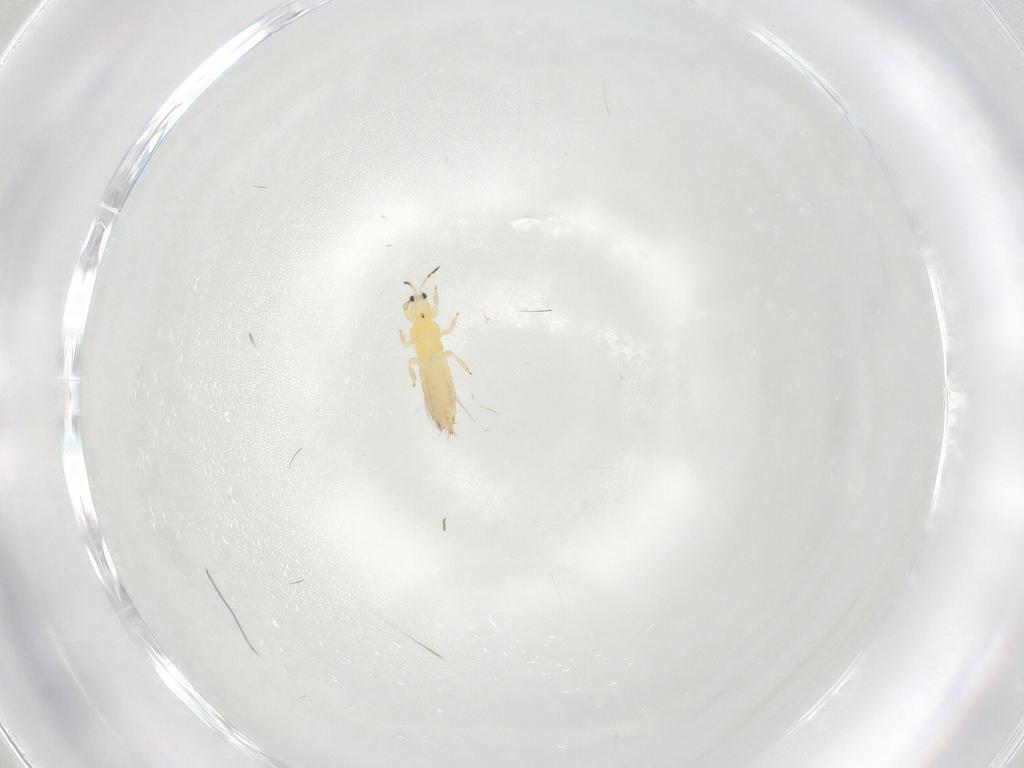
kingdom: Animalia
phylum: Arthropoda
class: Insecta
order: Thysanoptera
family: Thripidae
